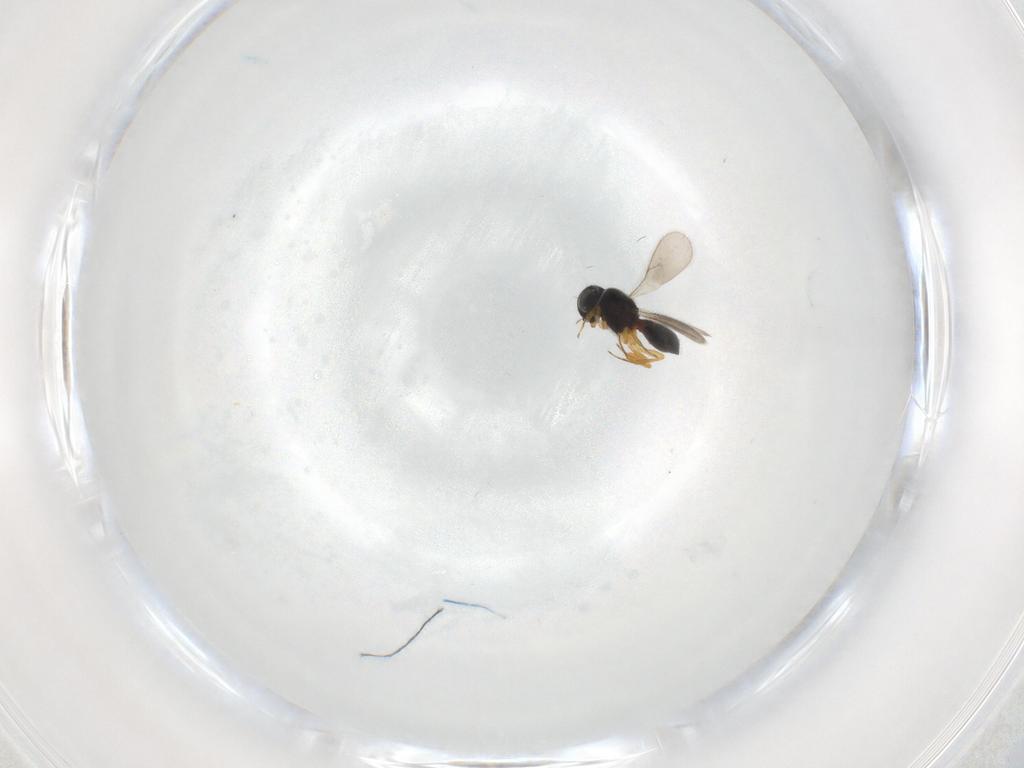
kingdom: Animalia
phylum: Arthropoda
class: Insecta
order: Hymenoptera
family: Scelionidae
